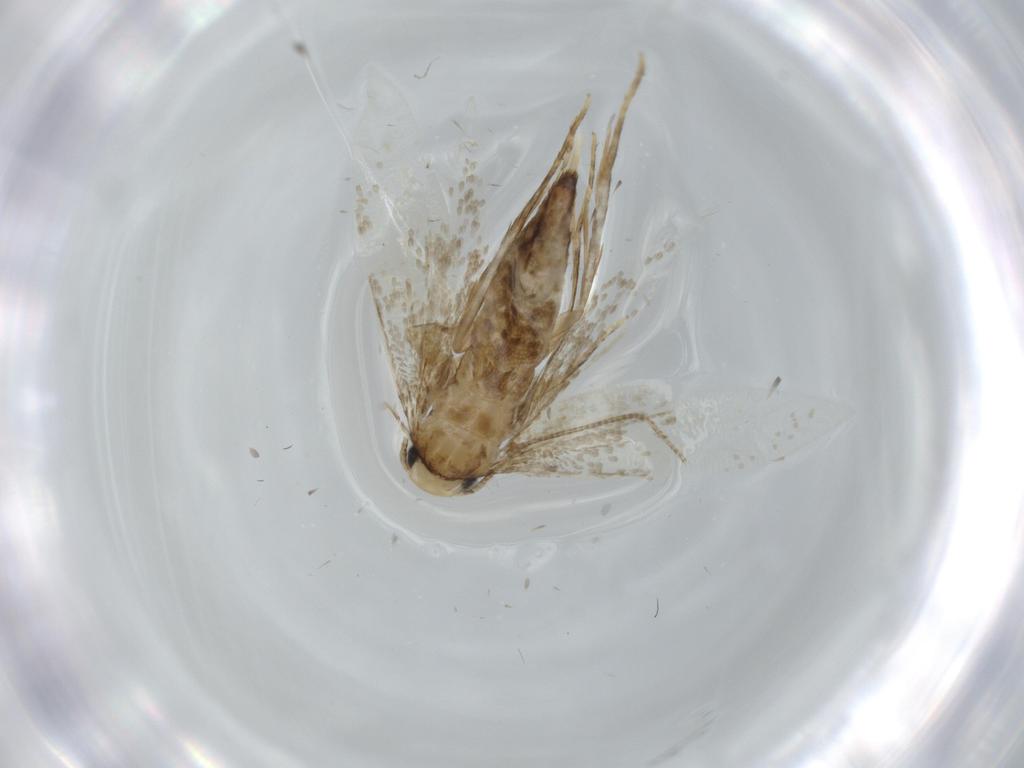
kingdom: Animalia
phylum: Arthropoda
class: Insecta
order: Lepidoptera
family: Tineidae
